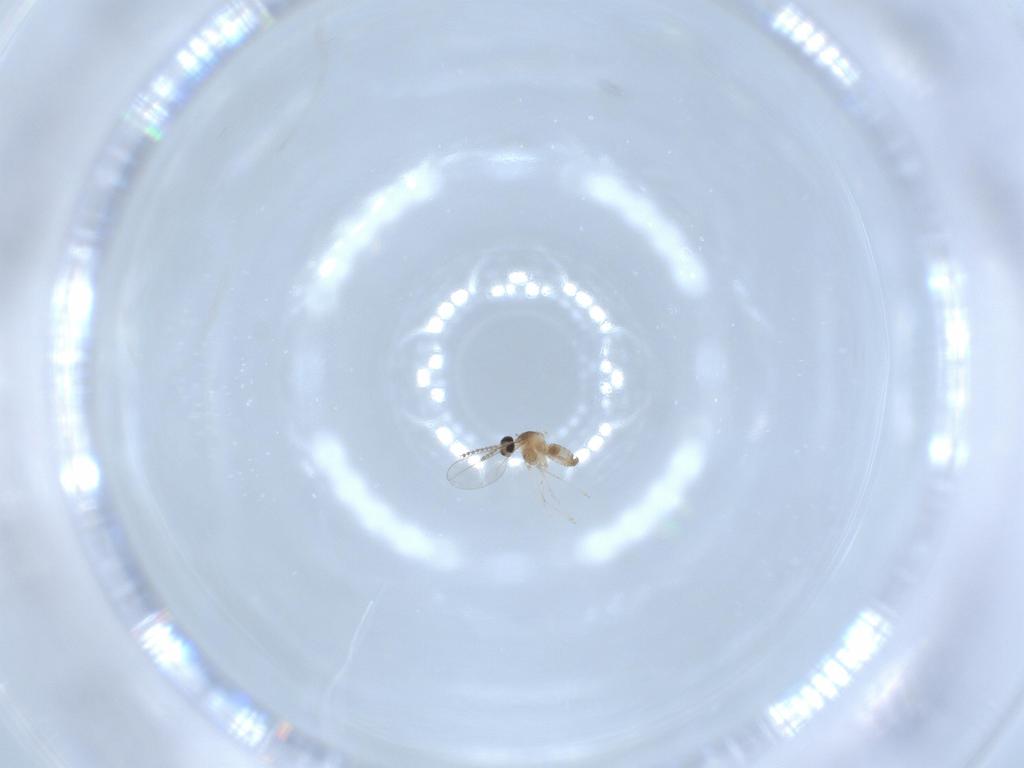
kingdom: Animalia
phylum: Arthropoda
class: Insecta
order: Diptera
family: Cecidomyiidae
